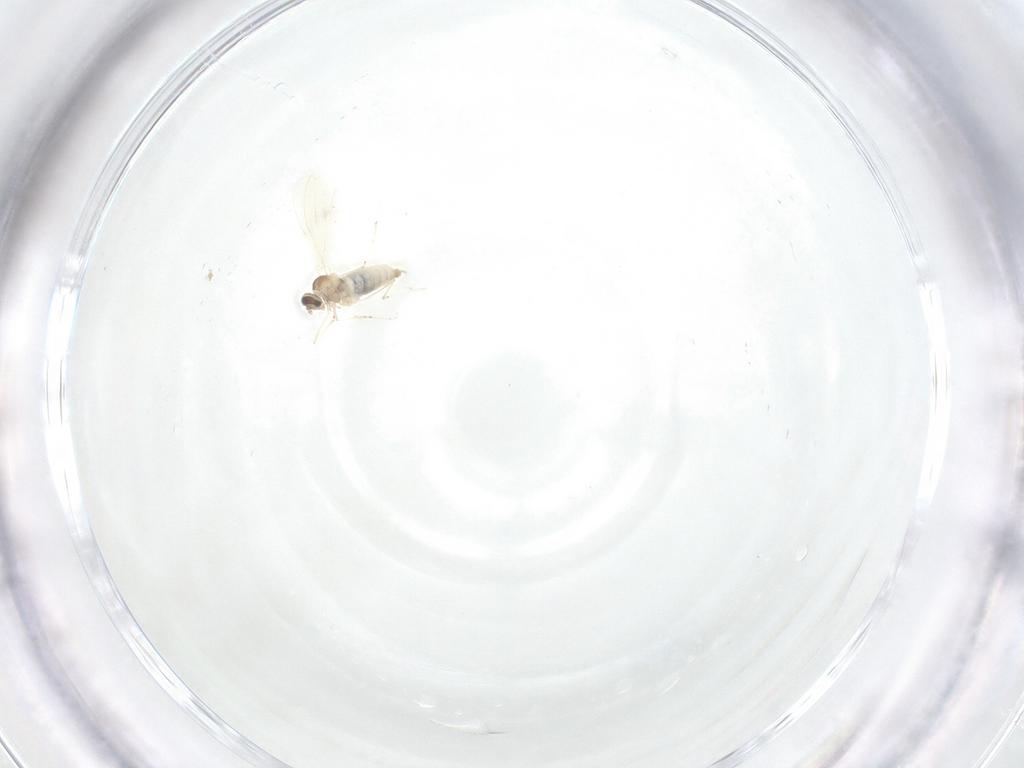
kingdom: Animalia
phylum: Arthropoda
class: Insecta
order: Diptera
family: Cecidomyiidae
